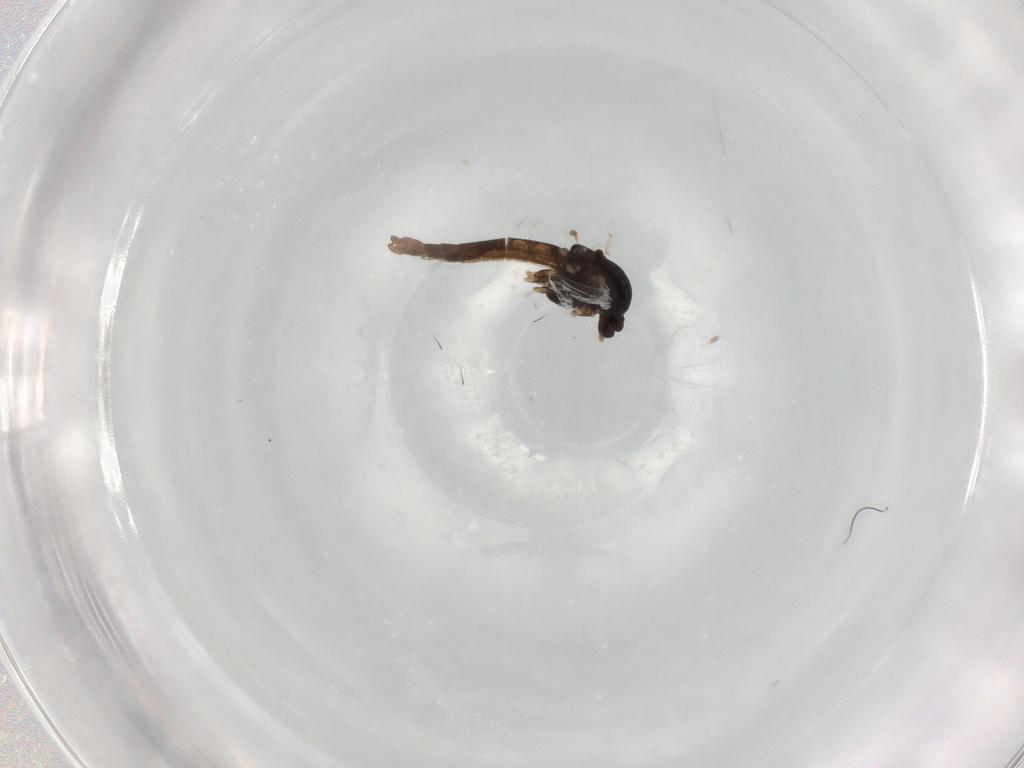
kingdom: Animalia
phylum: Arthropoda
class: Insecta
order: Diptera
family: Chironomidae
